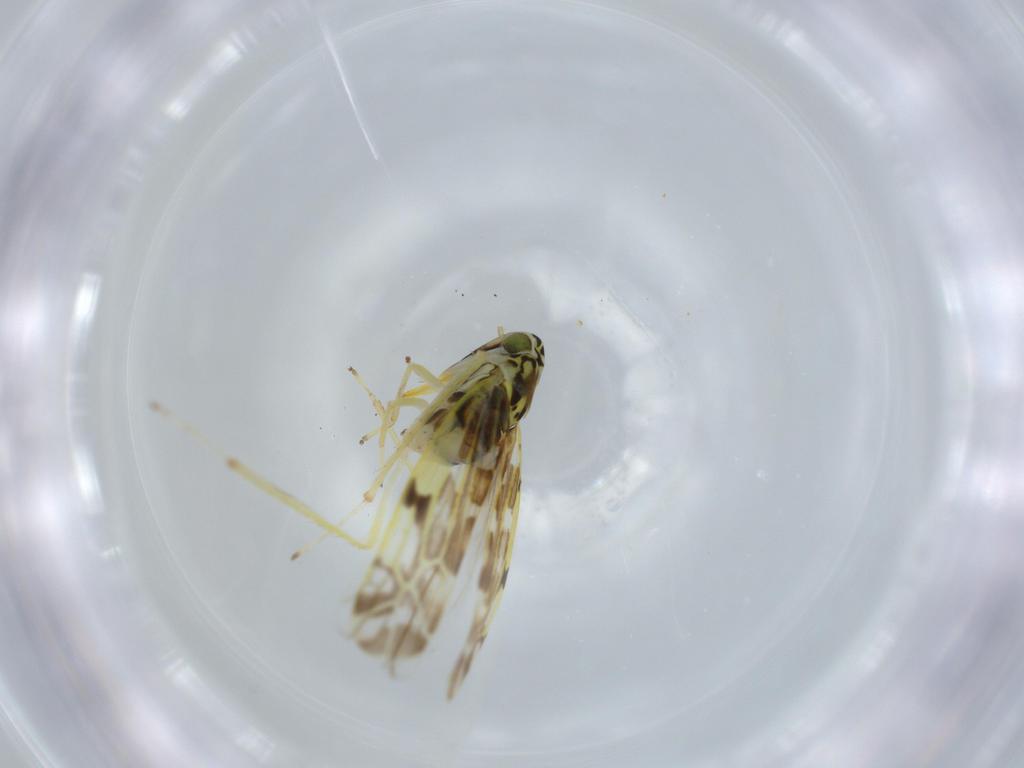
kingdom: Animalia
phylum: Arthropoda
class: Insecta
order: Hemiptera
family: Cicadellidae
